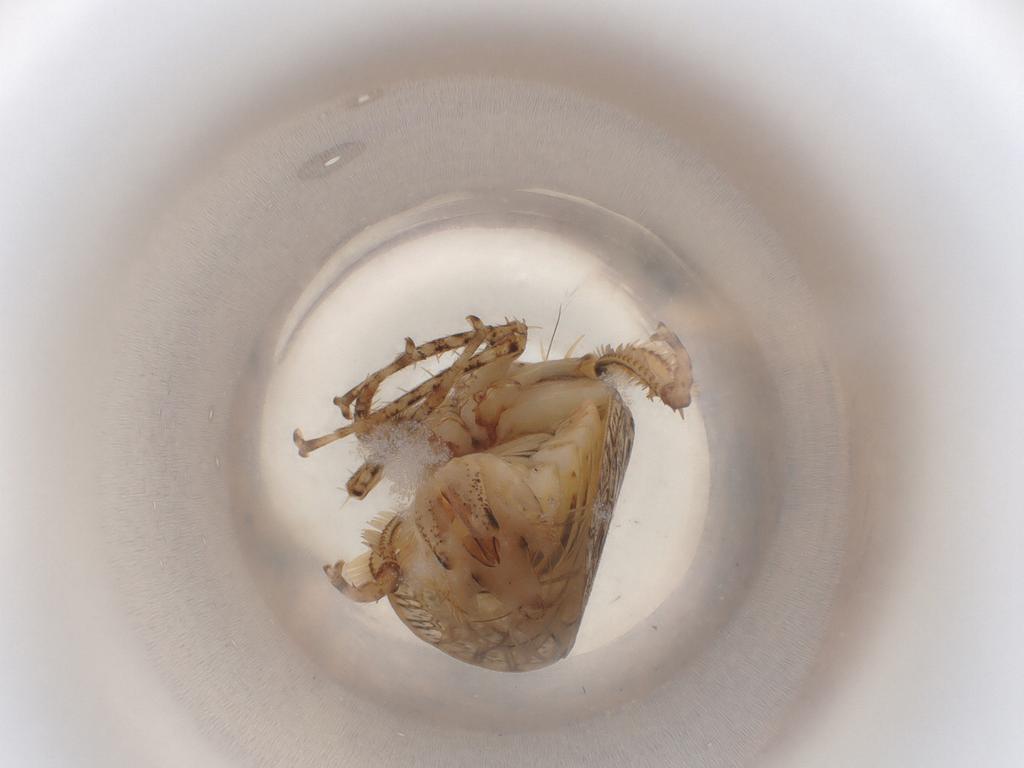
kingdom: Animalia
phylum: Arthropoda
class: Insecta
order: Hemiptera
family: Cicadellidae
